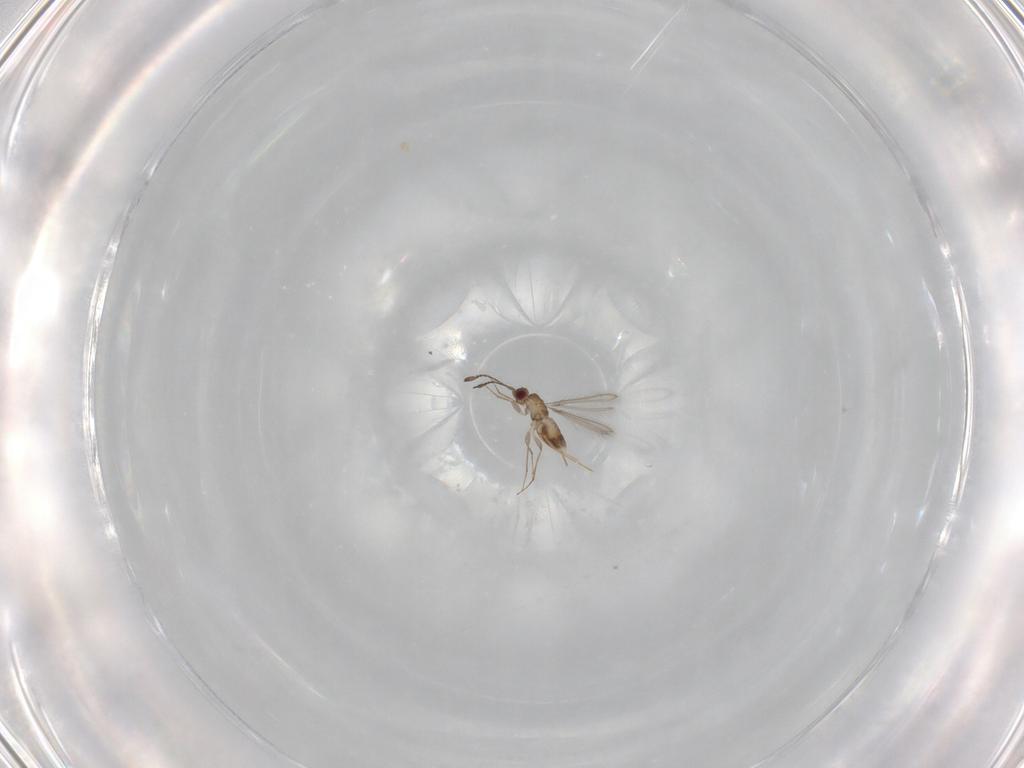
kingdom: Animalia
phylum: Arthropoda
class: Insecta
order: Hymenoptera
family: Mymaridae
